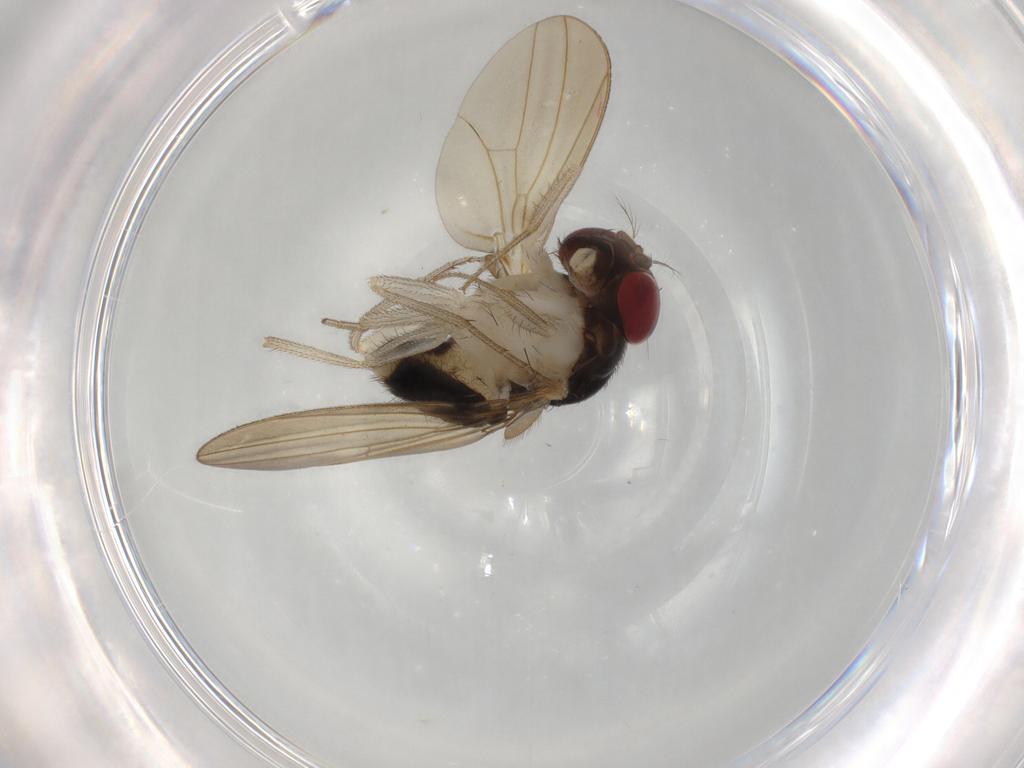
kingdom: Animalia
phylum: Arthropoda
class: Insecta
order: Diptera
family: Drosophilidae
